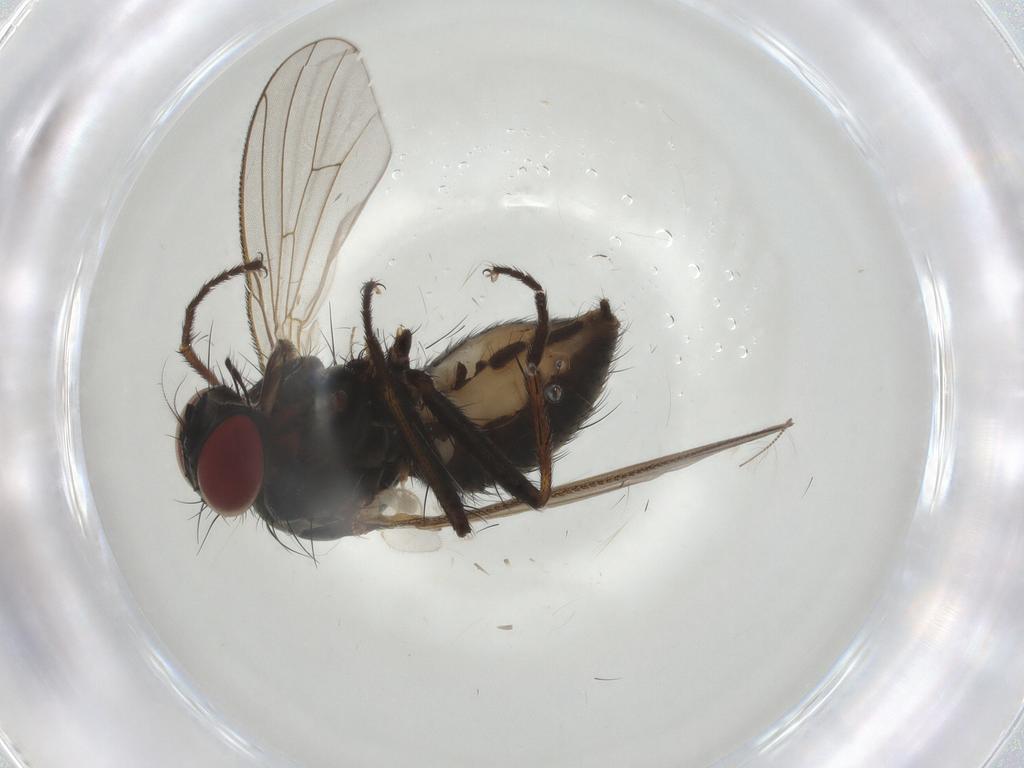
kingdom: Animalia
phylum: Arthropoda
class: Insecta
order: Diptera
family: Muscidae
